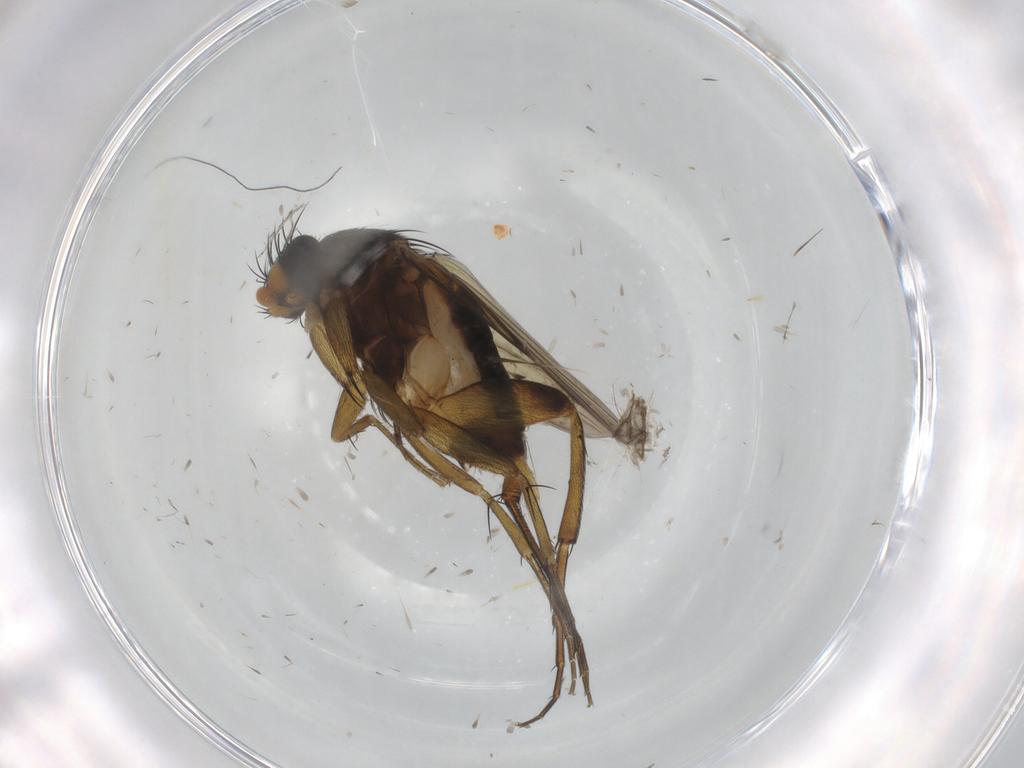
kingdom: Animalia
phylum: Arthropoda
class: Insecta
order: Diptera
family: Phoridae
